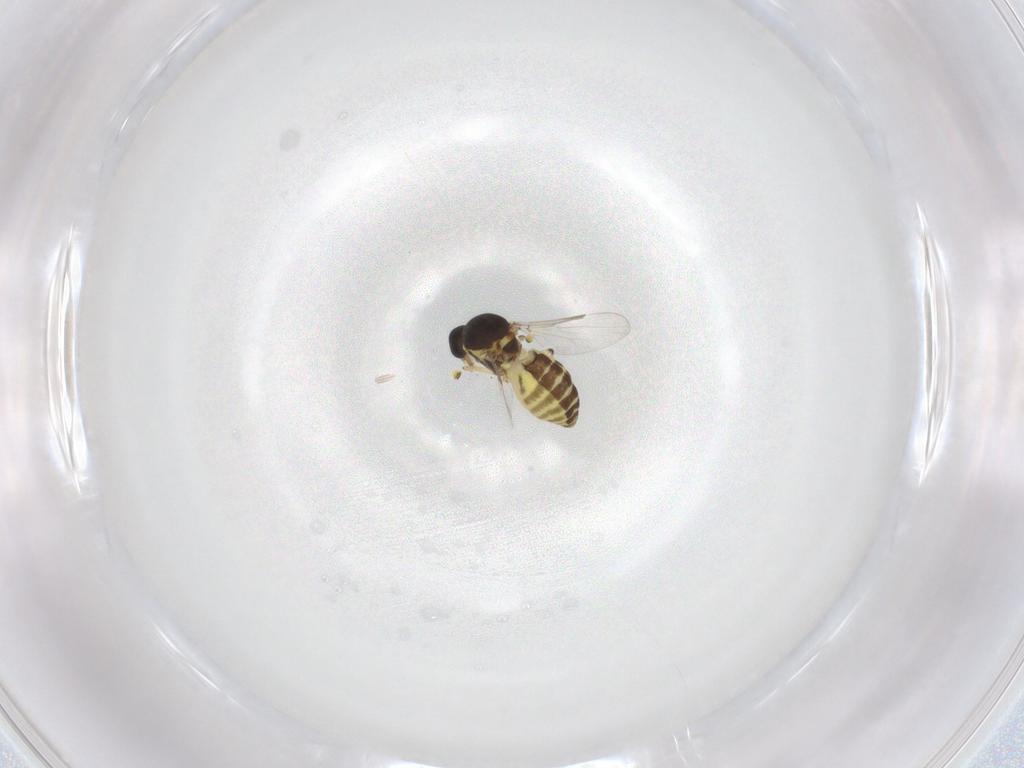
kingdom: Animalia
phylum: Arthropoda
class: Insecta
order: Diptera
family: Ceratopogonidae
